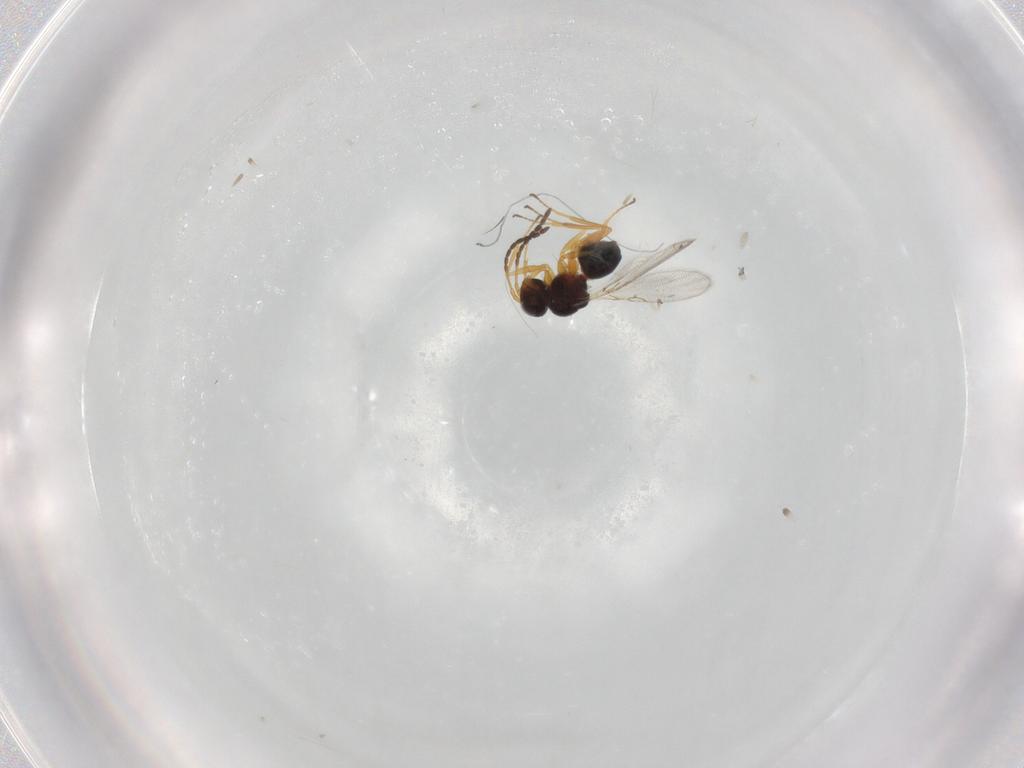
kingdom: Animalia
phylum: Arthropoda
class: Insecta
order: Hymenoptera
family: Figitidae
